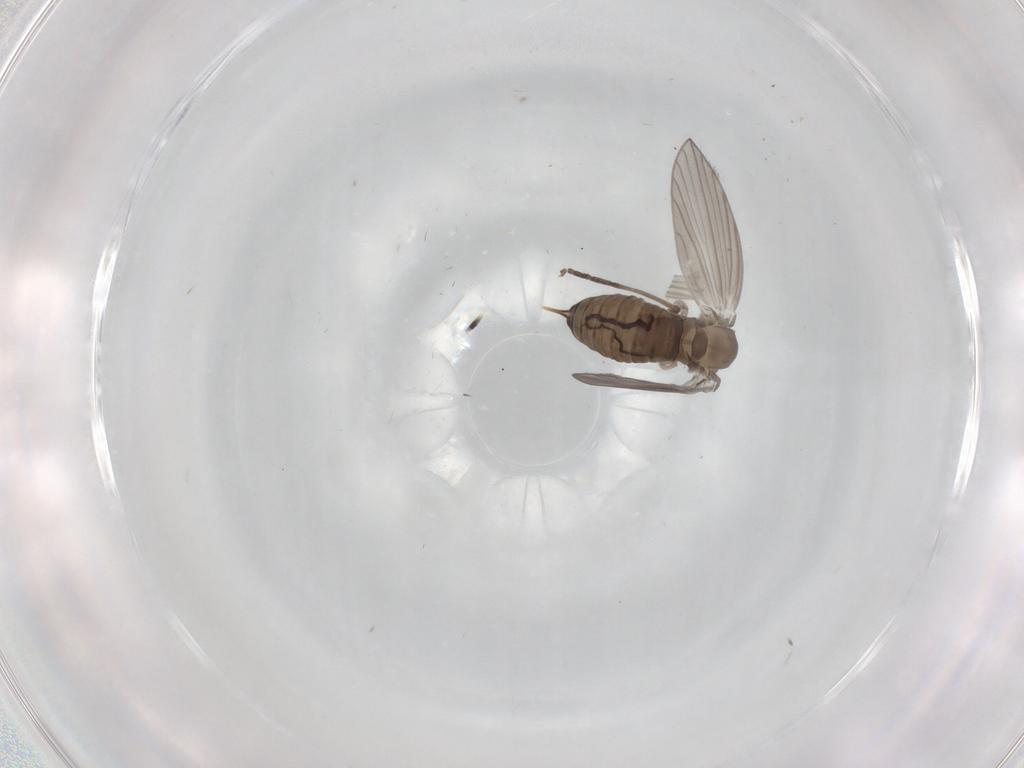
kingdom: Animalia
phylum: Arthropoda
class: Insecta
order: Diptera
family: Psychodidae
